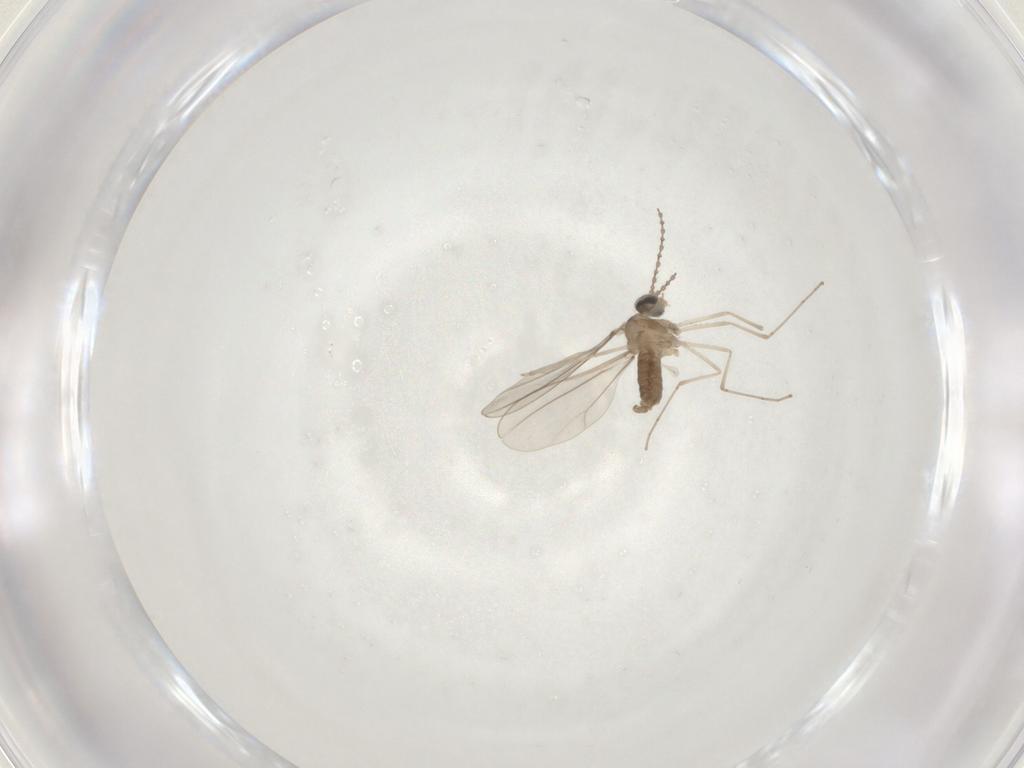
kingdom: Animalia
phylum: Arthropoda
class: Insecta
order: Diptera
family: Cecidomyiidae
